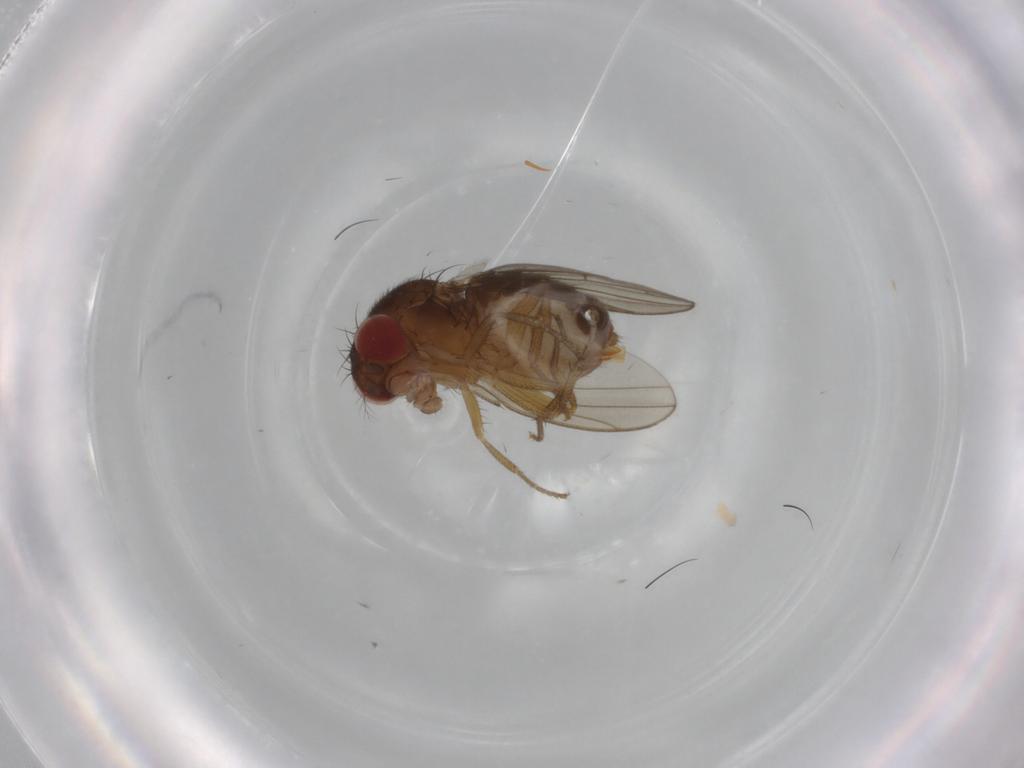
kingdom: Animalia
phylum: Arthropoda
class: Insecta
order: Diptera
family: Drosophilidae
